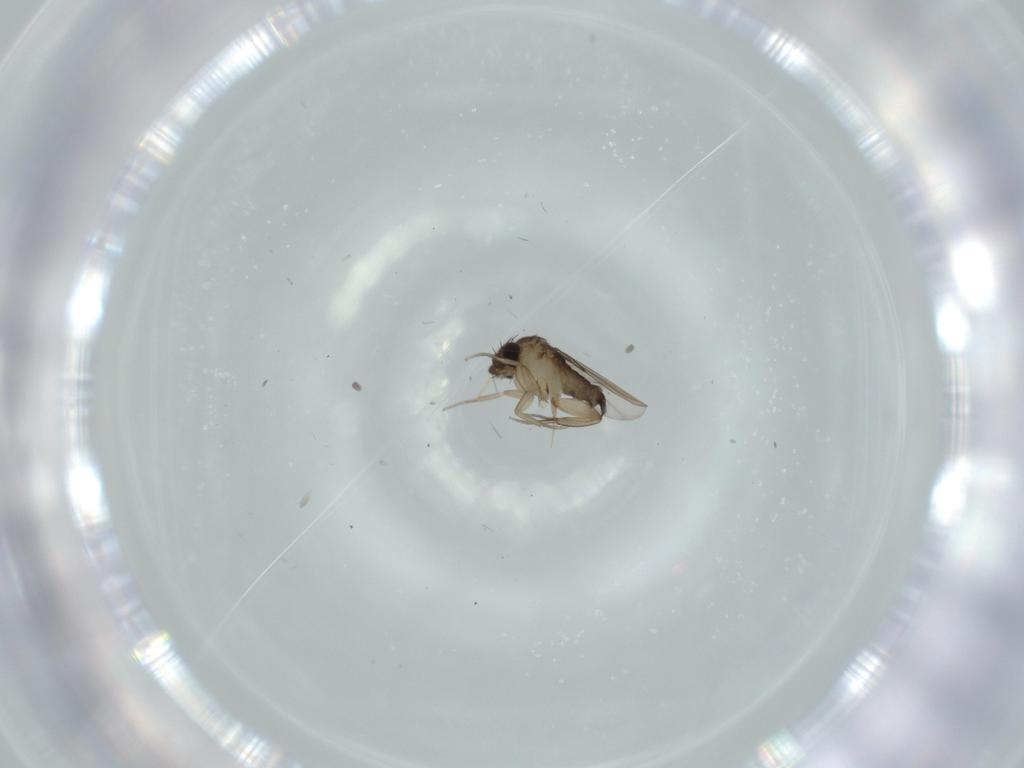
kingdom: Animalia
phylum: Arthropoda
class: Insecta
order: Diptera
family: Phoridae
